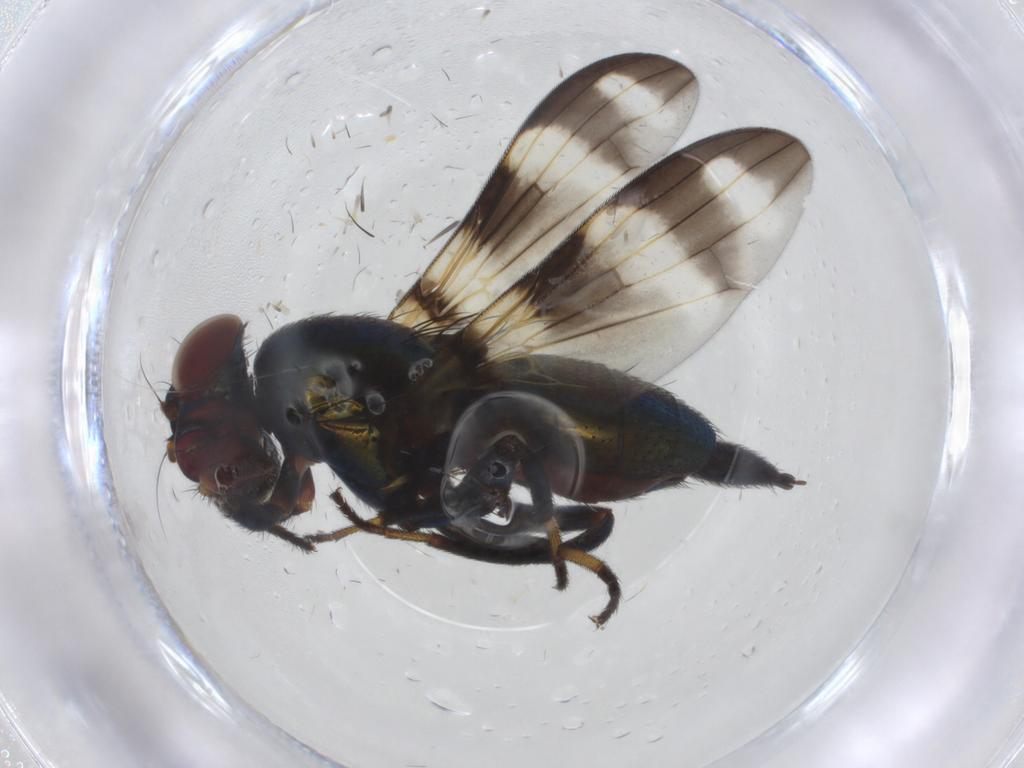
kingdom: Animalia
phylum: Arthropoda
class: Insecta
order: Diptera
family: Ulidiidae
